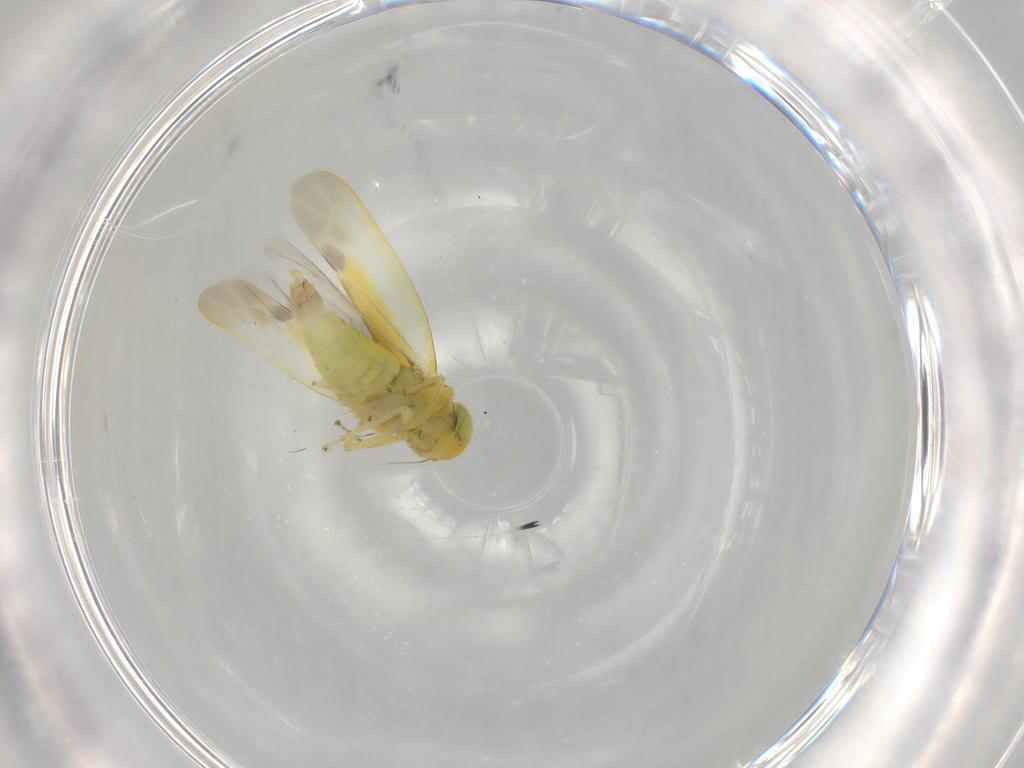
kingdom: Animalia
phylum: Arthropoda
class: Insecta
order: Hemiptera
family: Cicadellidae
